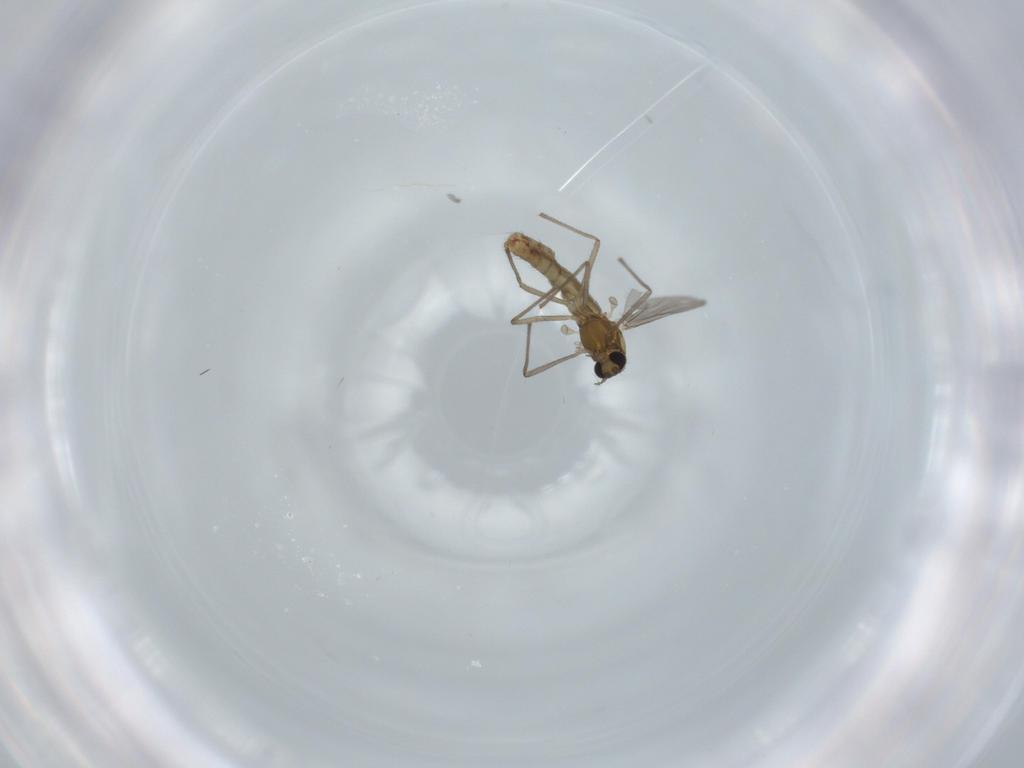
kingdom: Animalia
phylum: Arthropoda
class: Insecta
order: Diptera
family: Chironomidae
